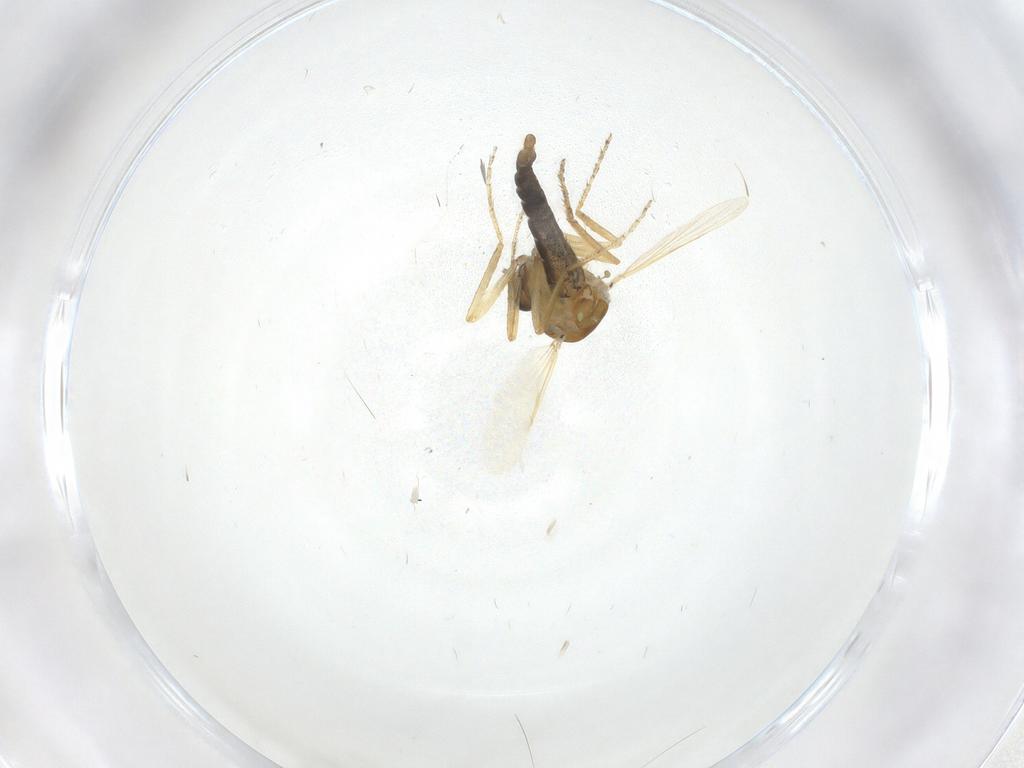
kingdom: Animalia
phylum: Arthropoda
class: Insecta
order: Diptera
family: Ceratopogonidae
